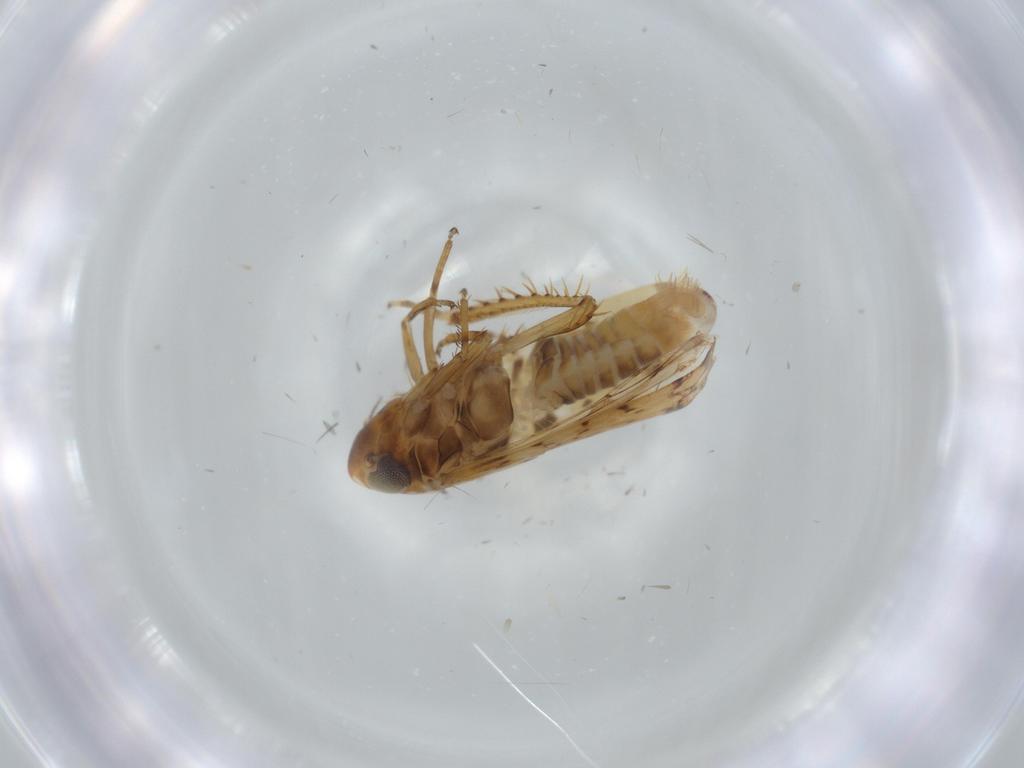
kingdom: Animalia
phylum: Arthropoda
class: Insecta
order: Hemiptera
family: Cicadellidae
